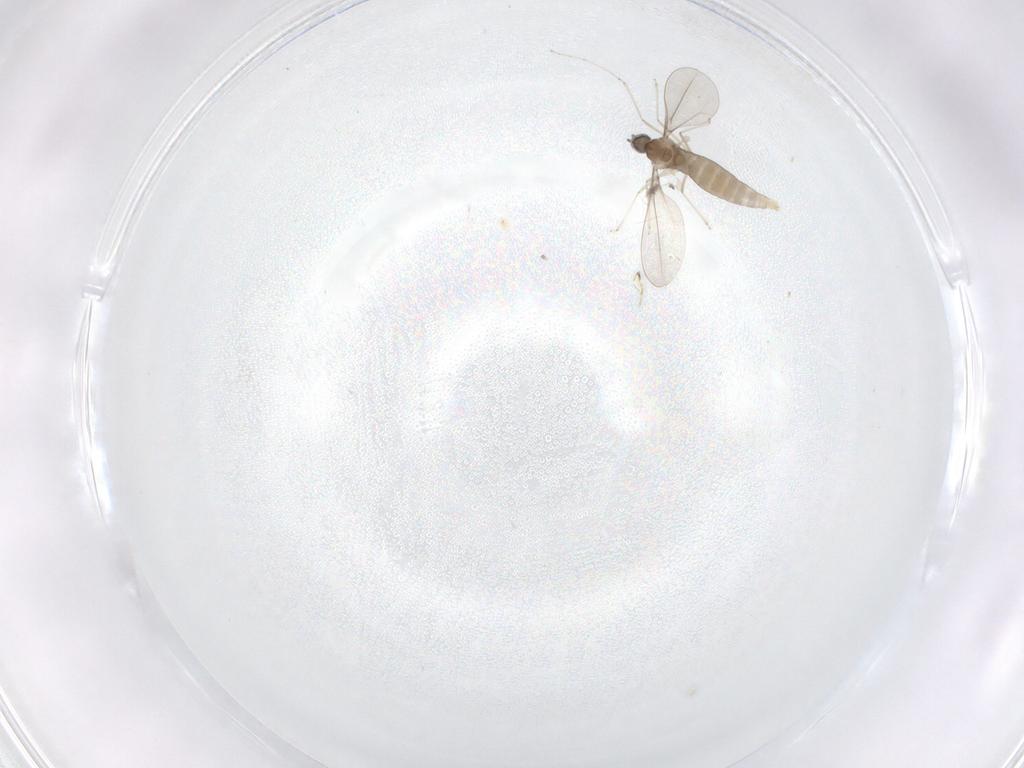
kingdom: Animalia
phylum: Arthropoda
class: Insecta
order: Diptera
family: Cecidomyiidae
